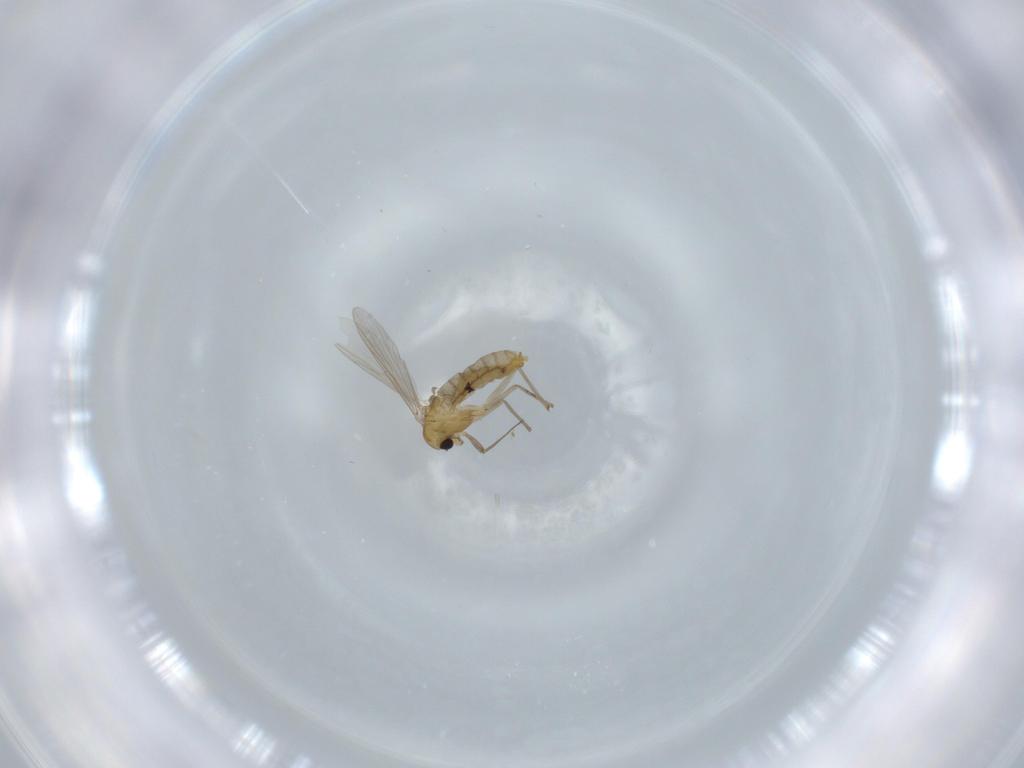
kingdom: Animalia
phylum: Arthropoda
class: Insecta
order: Diptera
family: Chironomidae
